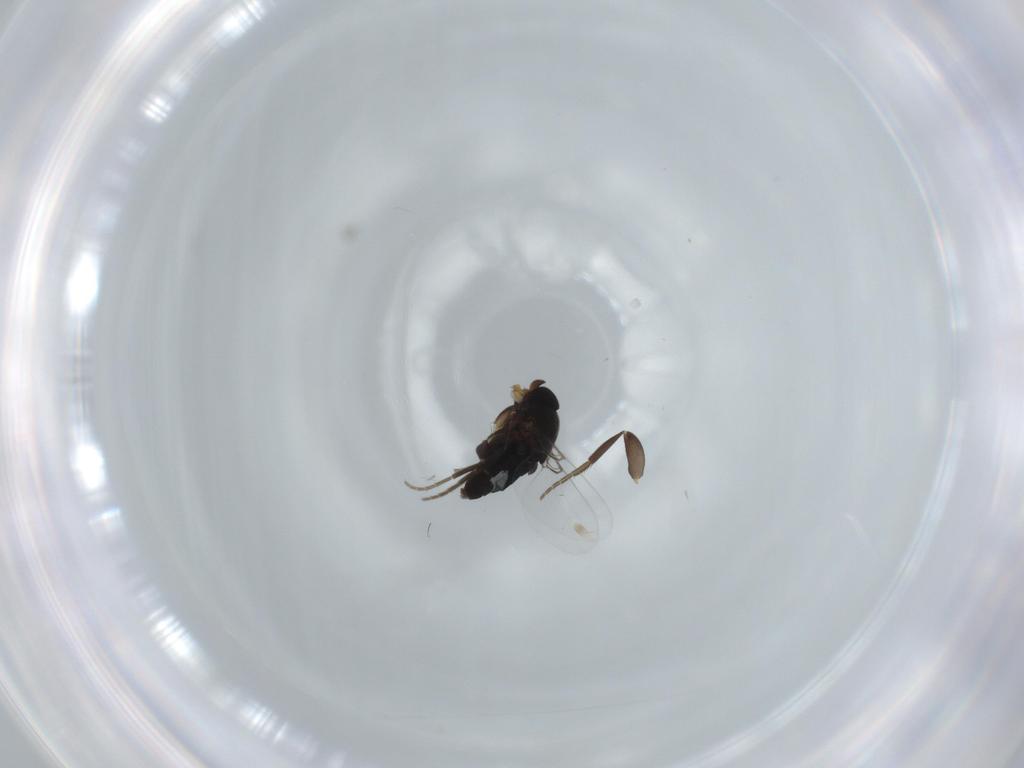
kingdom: Animalia
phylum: Arthropoda
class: Insecta
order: Diptera
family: Phoridae
